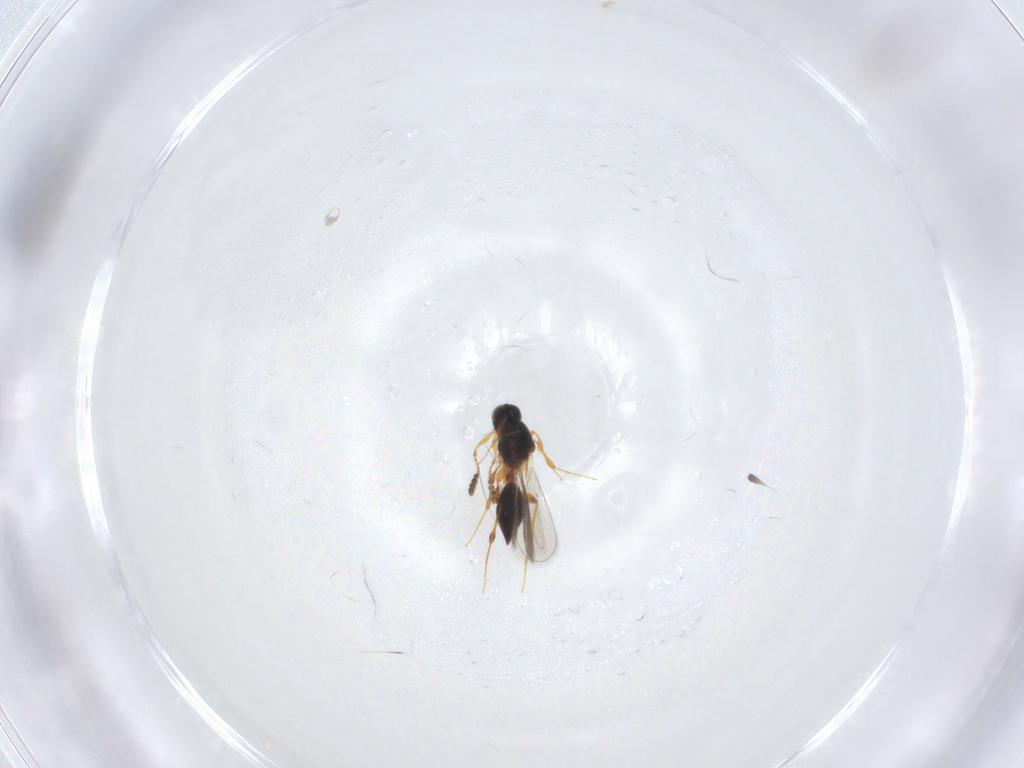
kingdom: Animalia
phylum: Arthropoda
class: Insecta
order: Hymenoptera
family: Platygastridae
